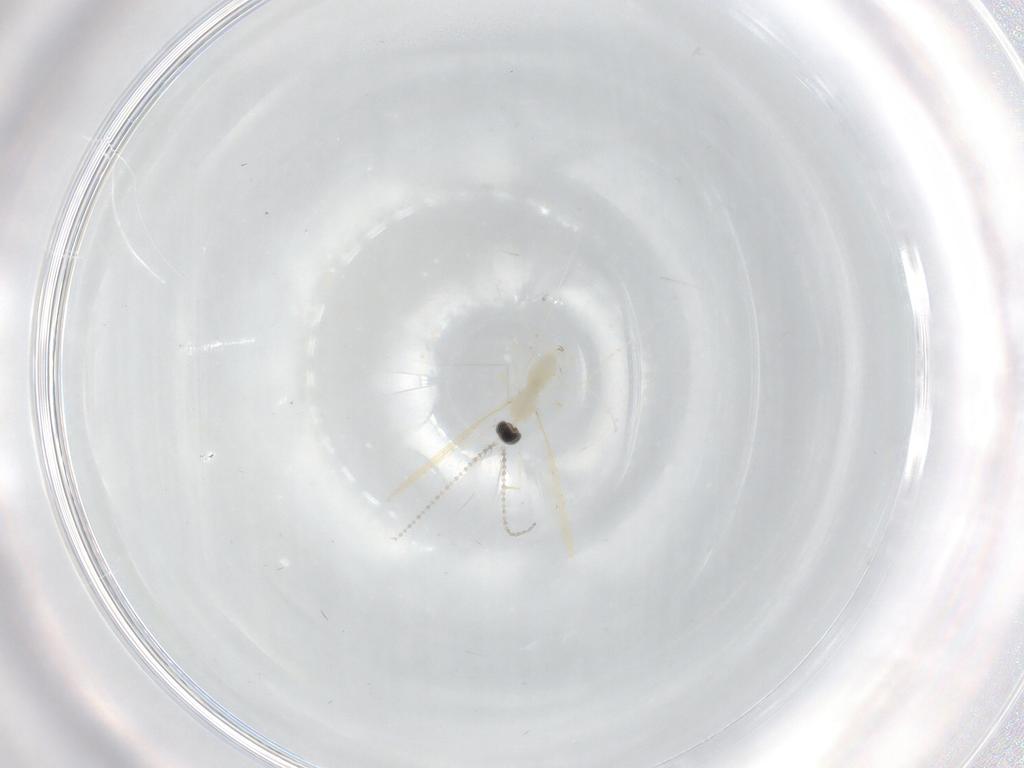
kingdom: Animalia
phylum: Arthropoda
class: Insecta
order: Diptera
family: Cecidomyiidae
